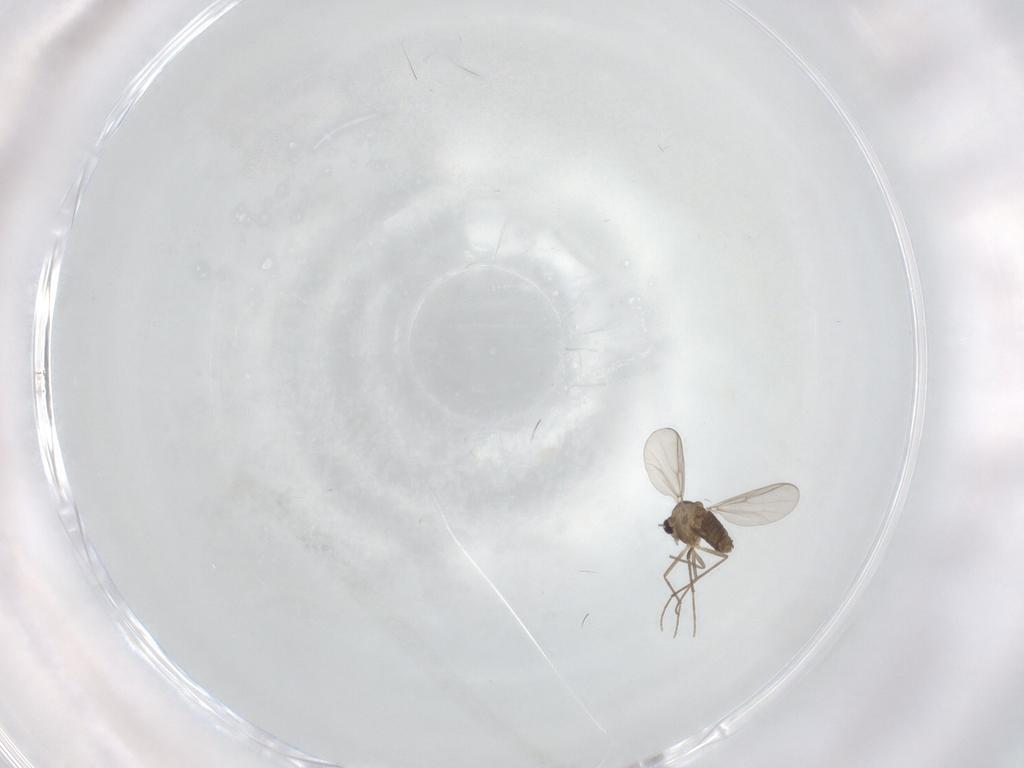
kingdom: Animalia
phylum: Arthropoda
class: Insecta
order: Diptera
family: Chironomidae
